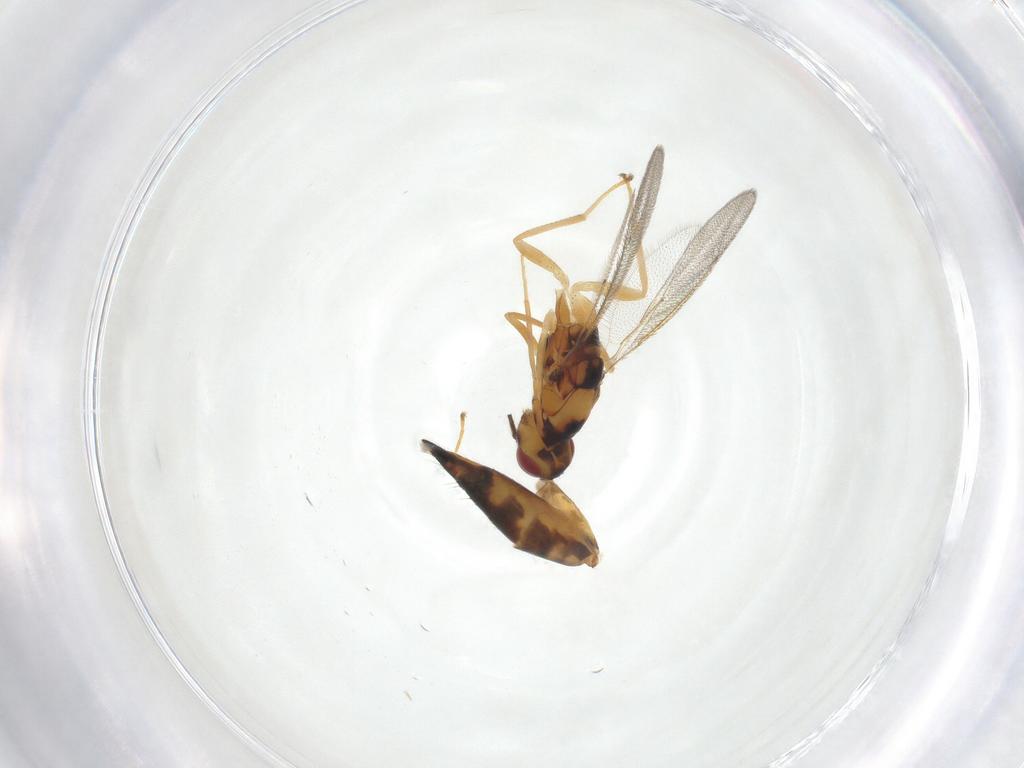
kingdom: Animalia
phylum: Arthropoda
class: Insecta
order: Hymenoptera
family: Eulophidae
